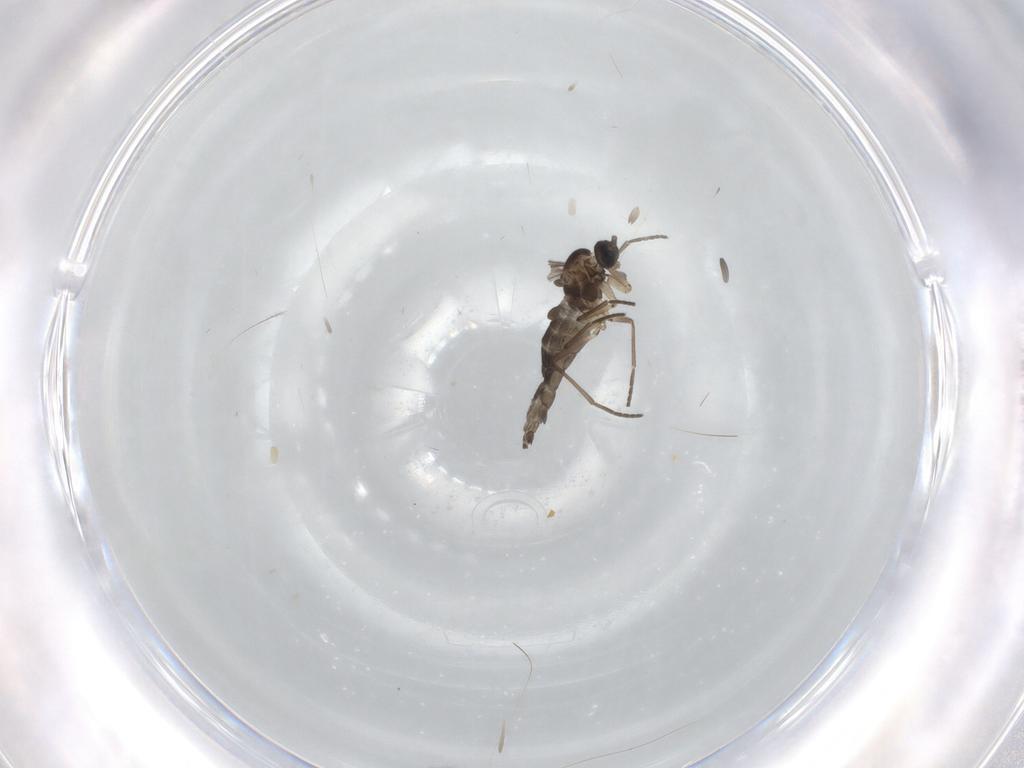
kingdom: Animalia
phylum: Arthropoda
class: Insecta
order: Diptera
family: Sciaridae
